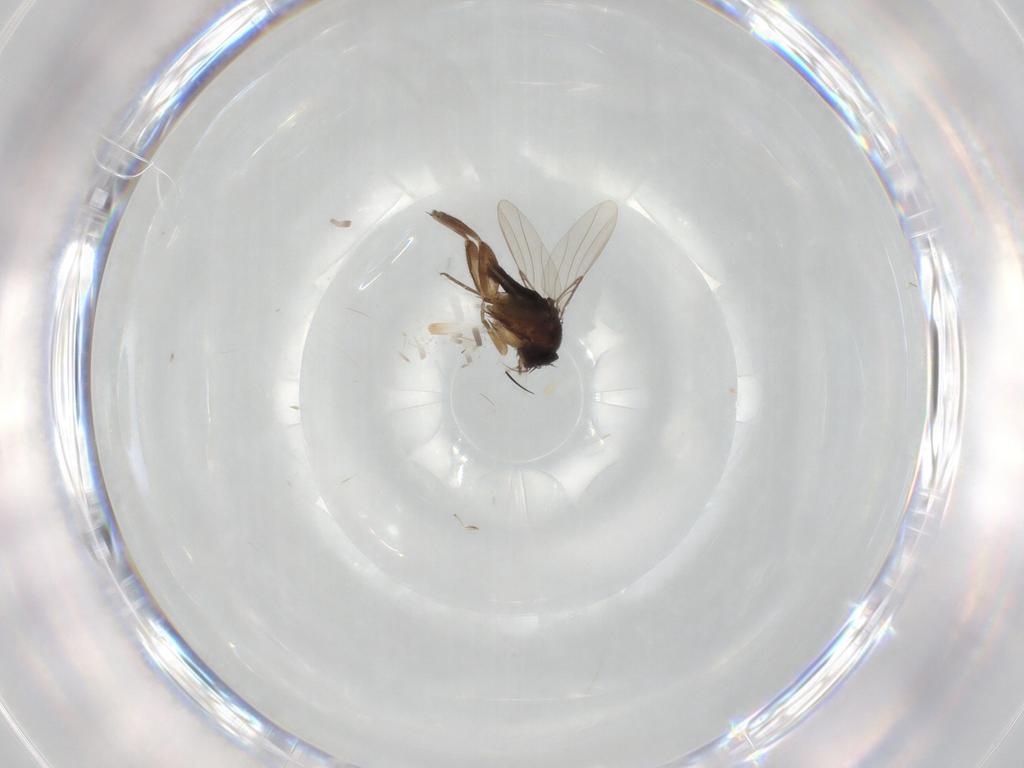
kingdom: Animalia
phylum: Arthropoda
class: Insecta
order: Diptera
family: Phoridae
